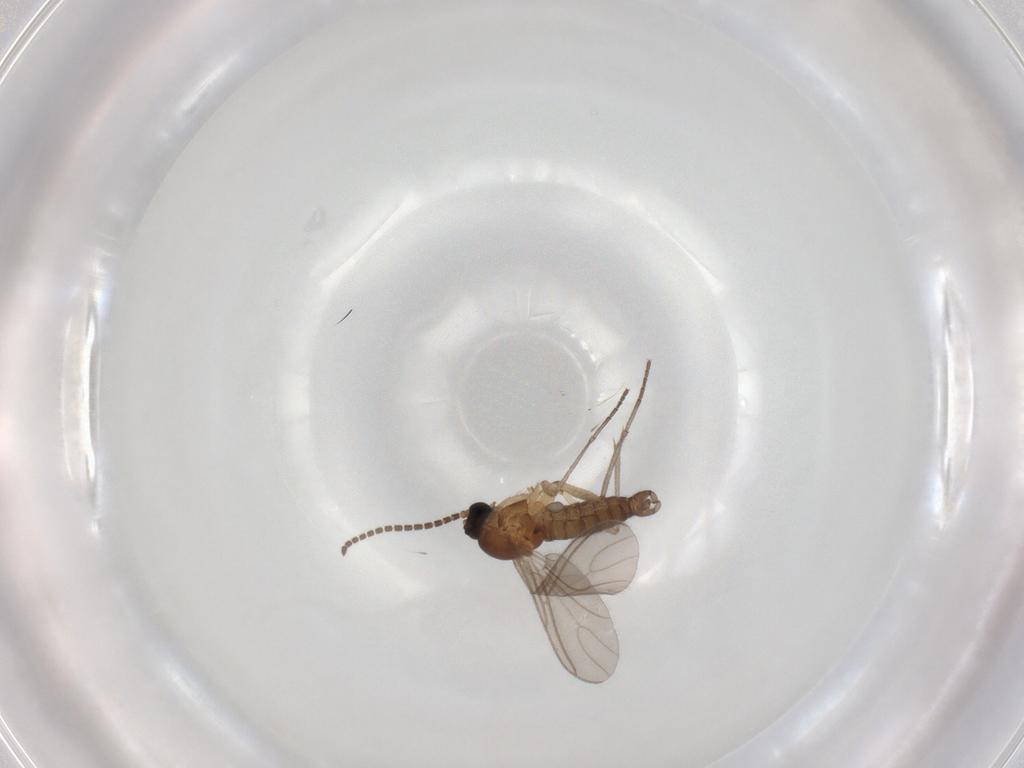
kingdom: Animalia
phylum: Arthropoda
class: Insecta
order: Diptera
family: Sciaridae
